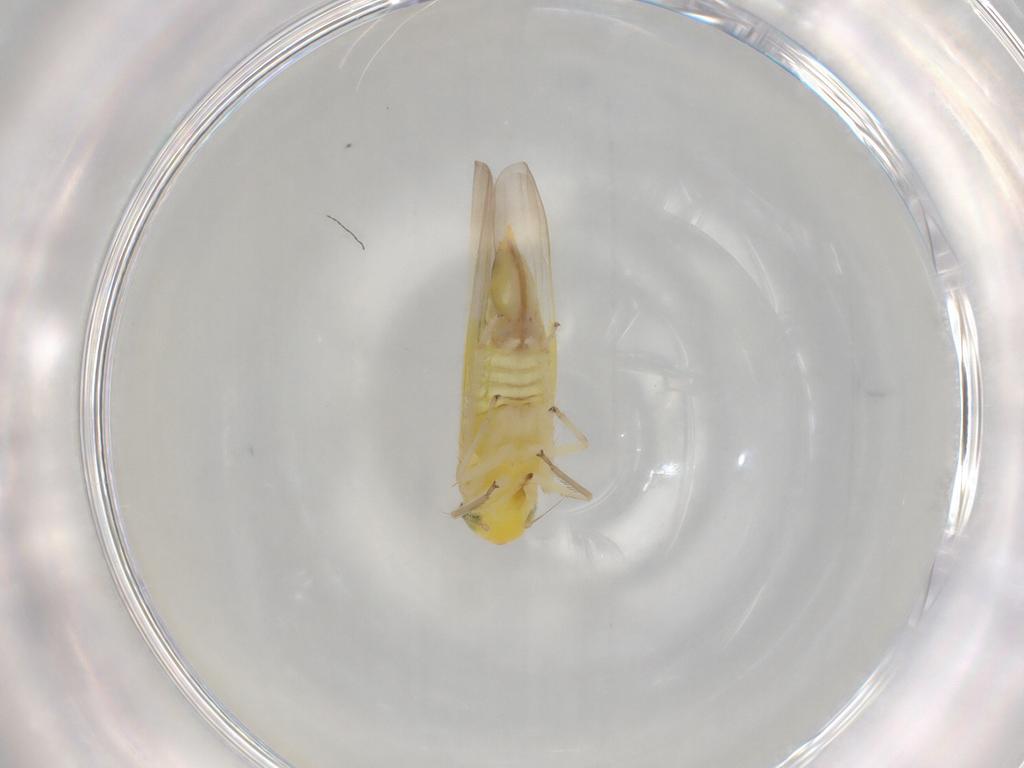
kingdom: Animalia
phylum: Arthropoda
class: Insecta
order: Hemiptera
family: Cicadellidae
